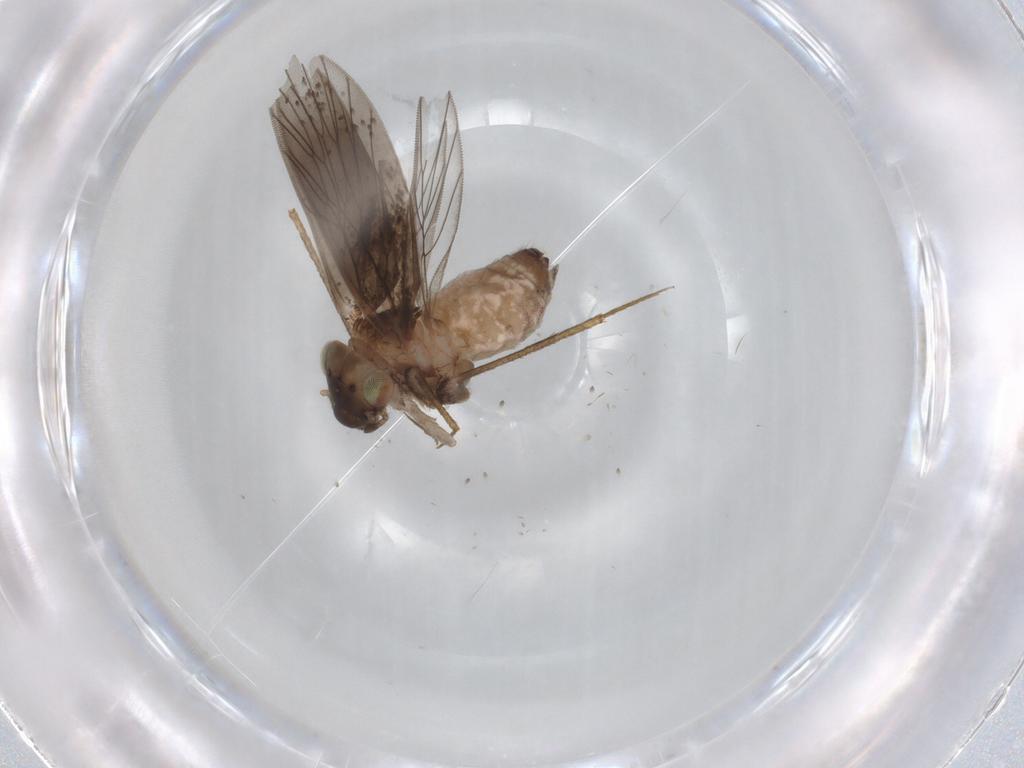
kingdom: Animalia
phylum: Arthropoda
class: Insecta
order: Psocodea
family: Lepidopsocidae
